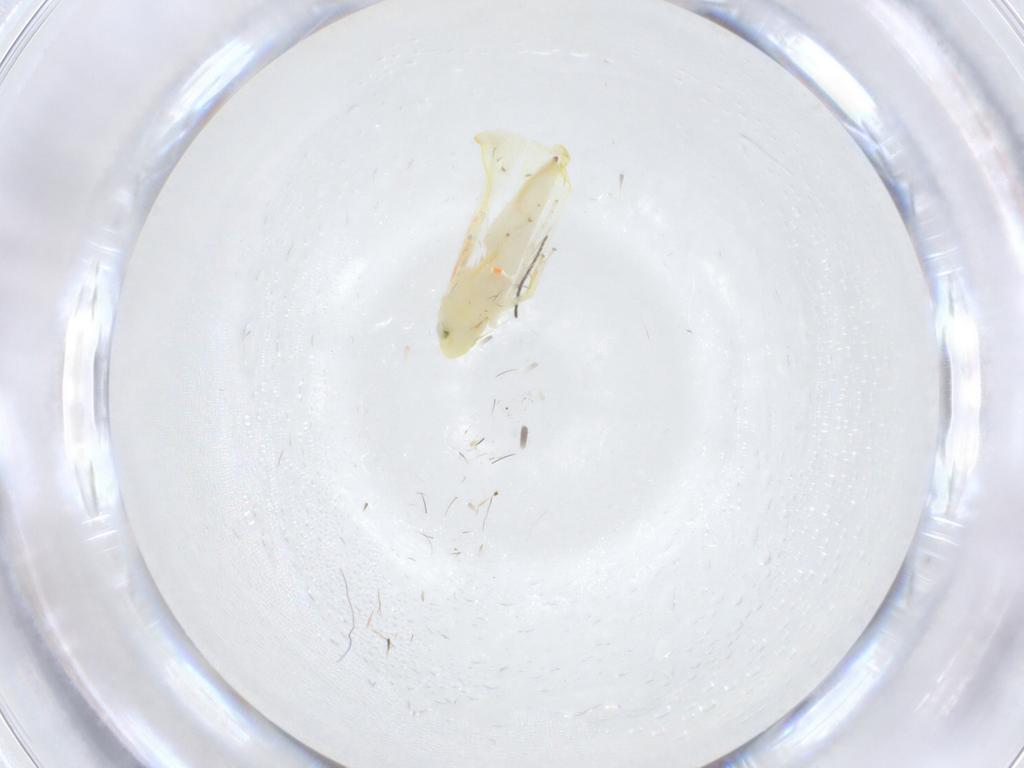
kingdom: Animalia
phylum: Arthropoda
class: Insecta
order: Hemiptera
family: Cicadellidae
